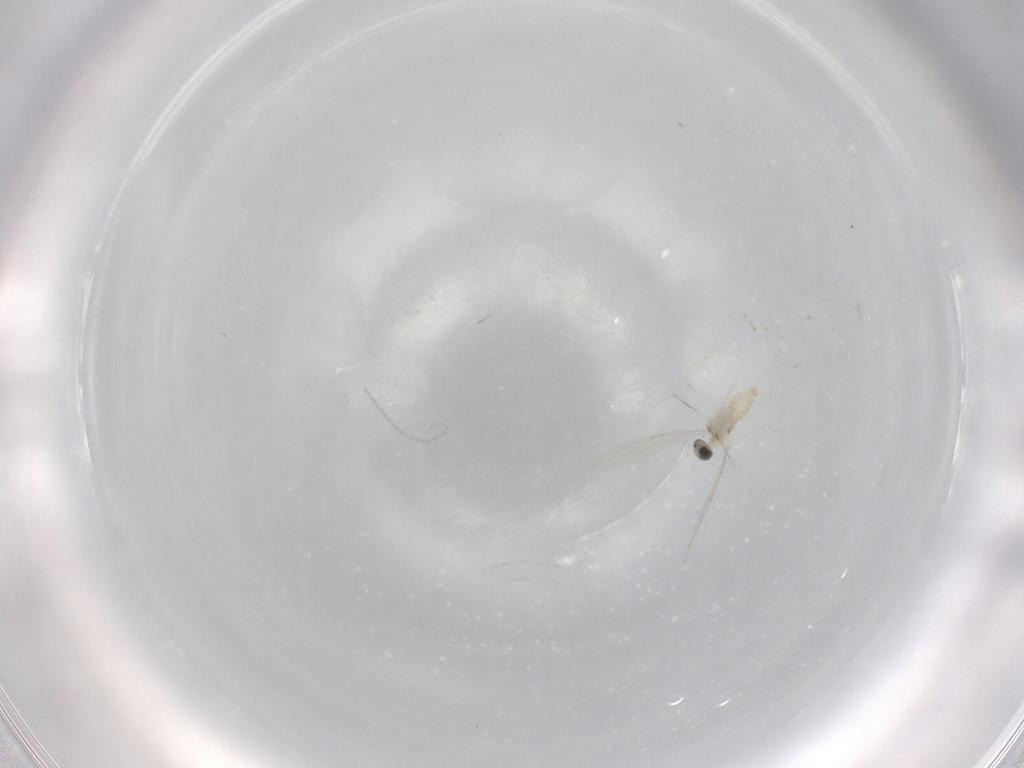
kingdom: Animalia
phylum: Arthropoda
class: Insecta
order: Diptera
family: Cecidomyiidae
